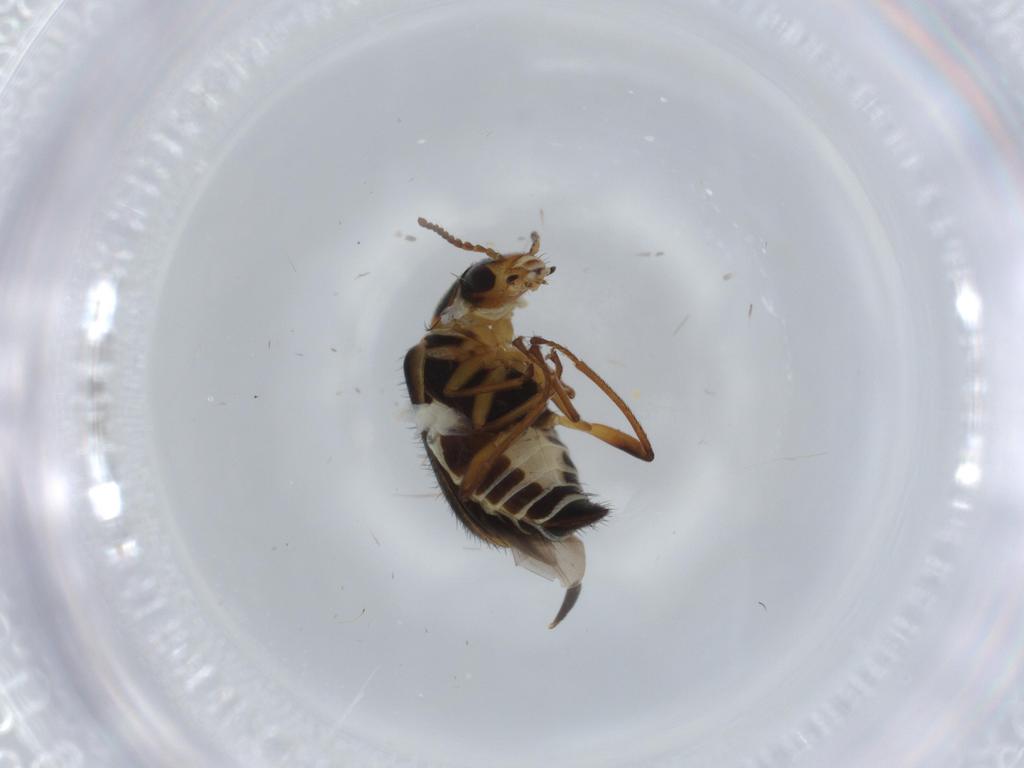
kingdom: Animalia
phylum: Arthropoda
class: Insecta
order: Coleoptera
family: Melyridae
